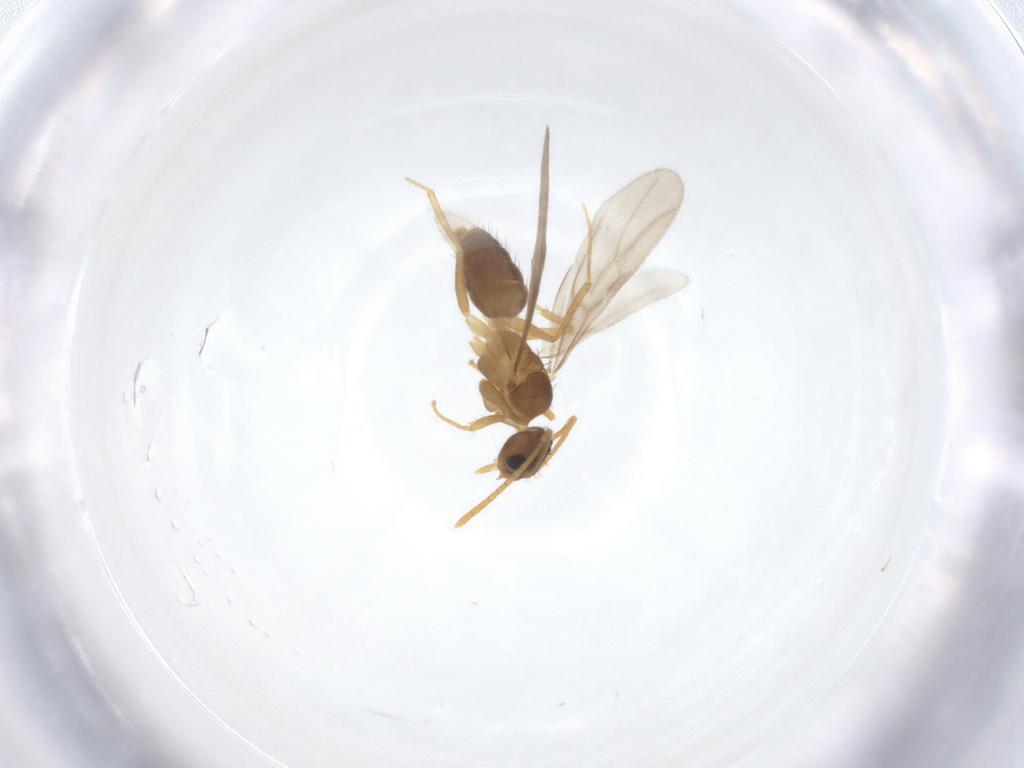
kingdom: Animalia
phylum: Arthropoda
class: Insecta
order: Hymenoptera
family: Formicidae
